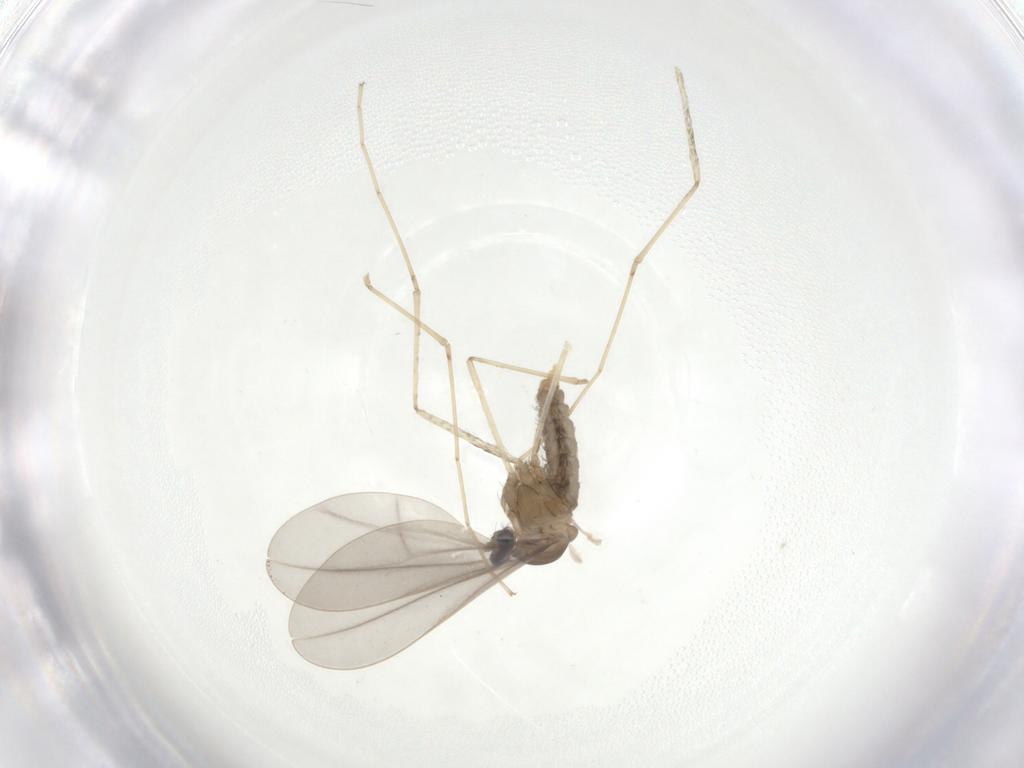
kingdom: Animalia
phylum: Arthropoda
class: Insecta
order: Diptera
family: Cecidomyiidae
